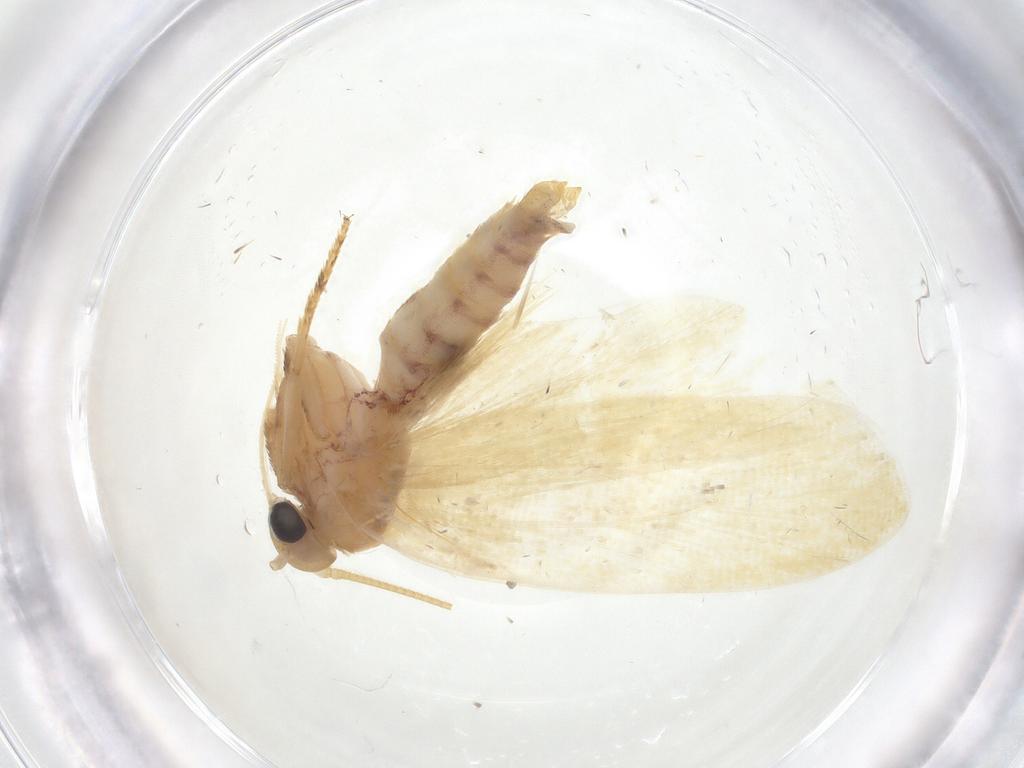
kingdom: Animalia
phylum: Arthropoda
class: Insecta
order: Lepidoptera
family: Depressariidae
